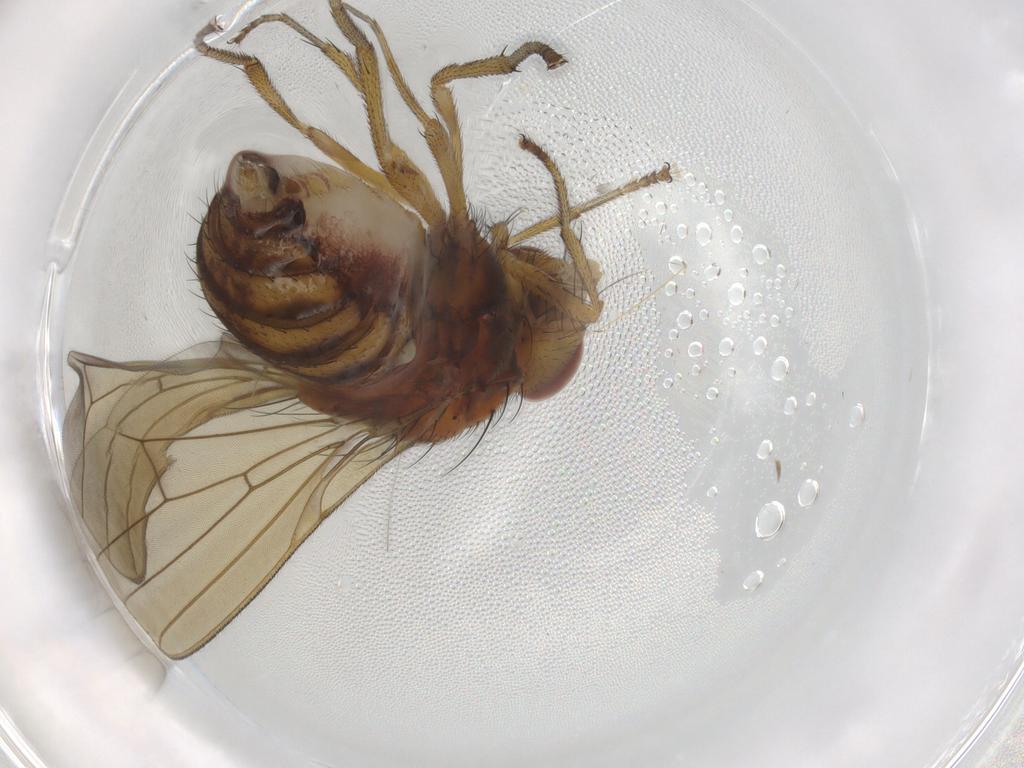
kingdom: Animalia
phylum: Arthropoda
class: Insecta
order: Diptera
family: Lauxaniidae
